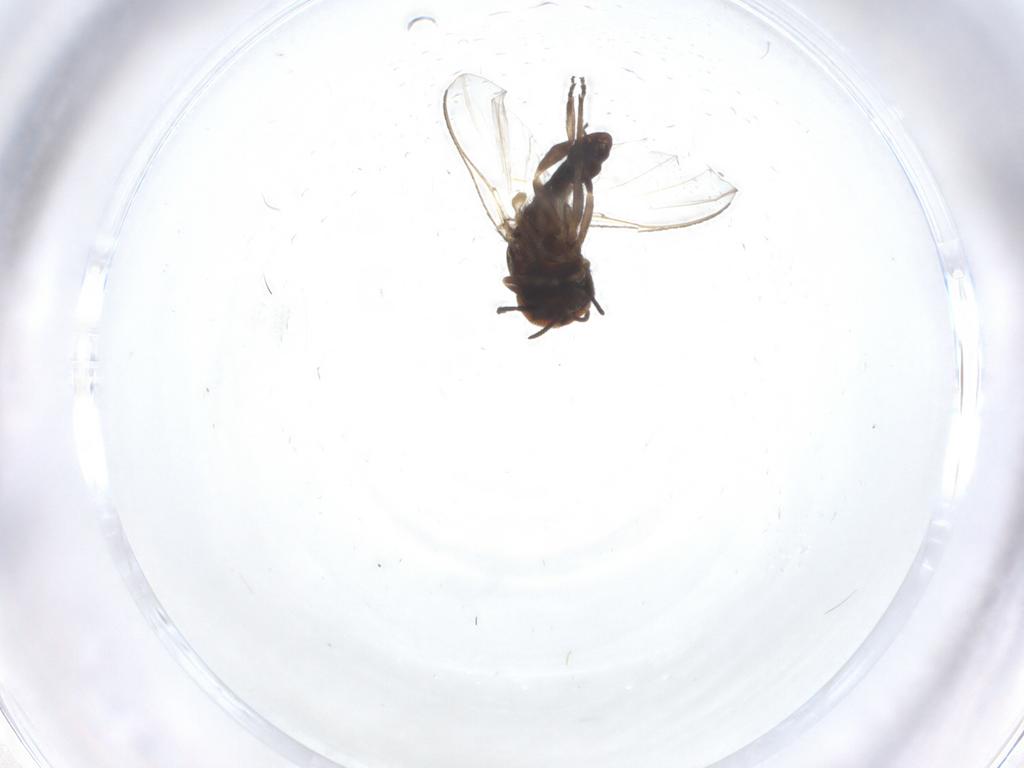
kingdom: Animalia
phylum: Arthropoda
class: Insecta
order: Diptera
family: Simuliidae
